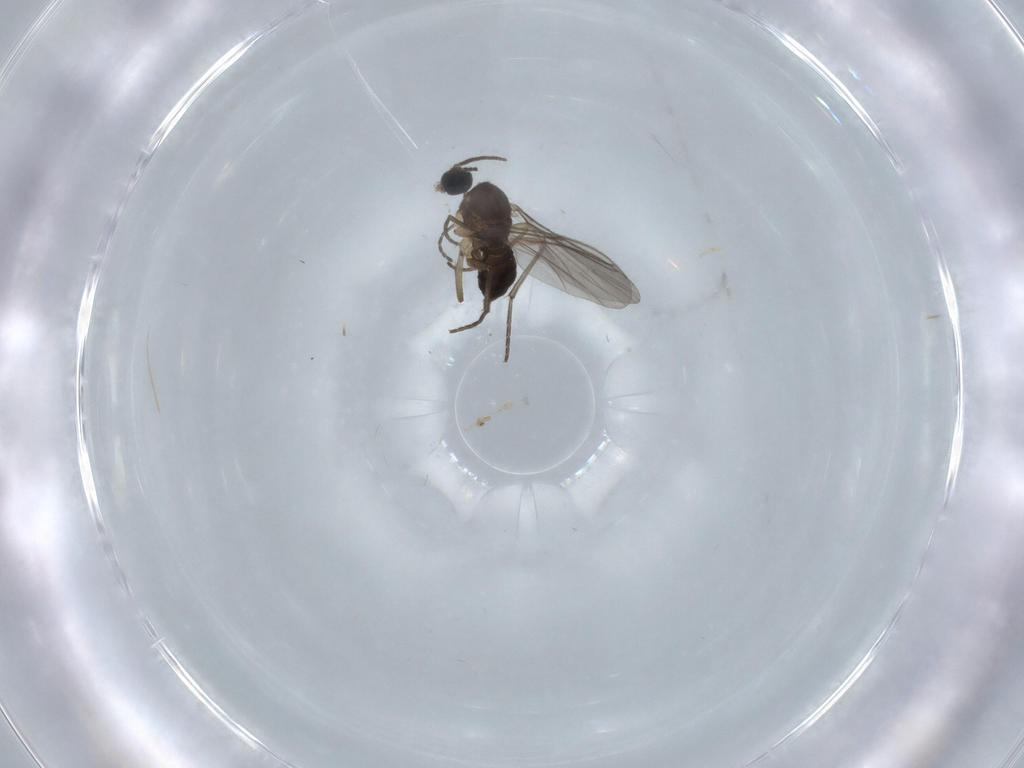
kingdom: Animalia
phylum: Arthropoda
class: Insecta
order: Diptera
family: Sciaridae
